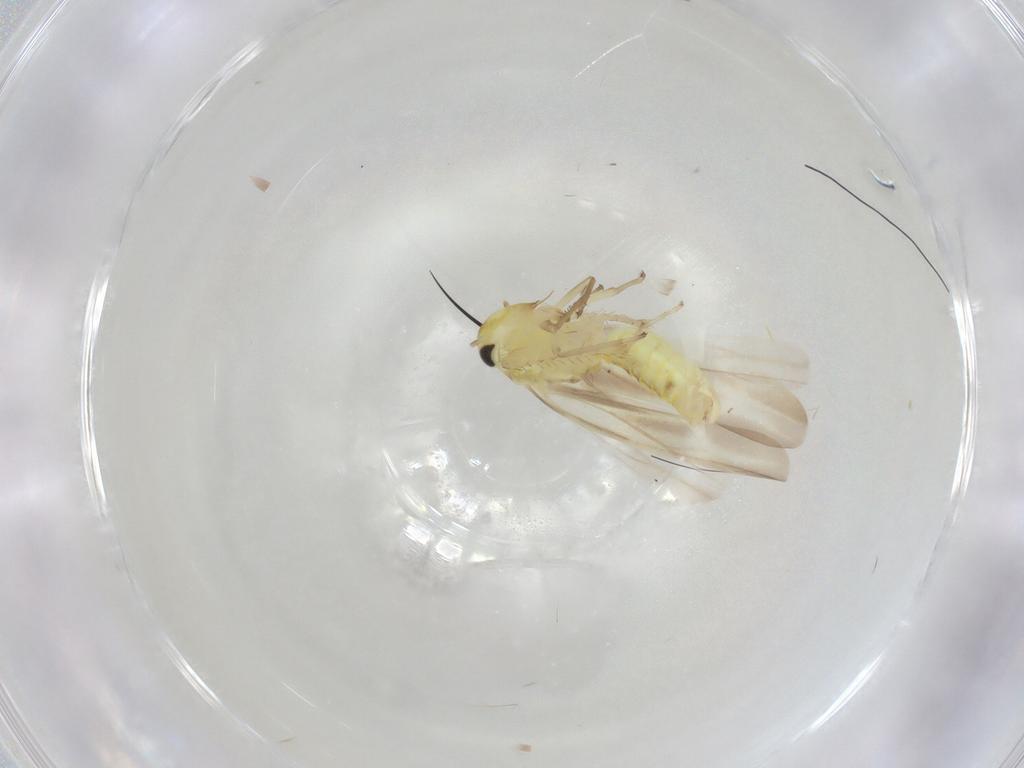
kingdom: Animalia
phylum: Arthropoda
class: Insecta
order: Hemiptera
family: Cicadellidae
